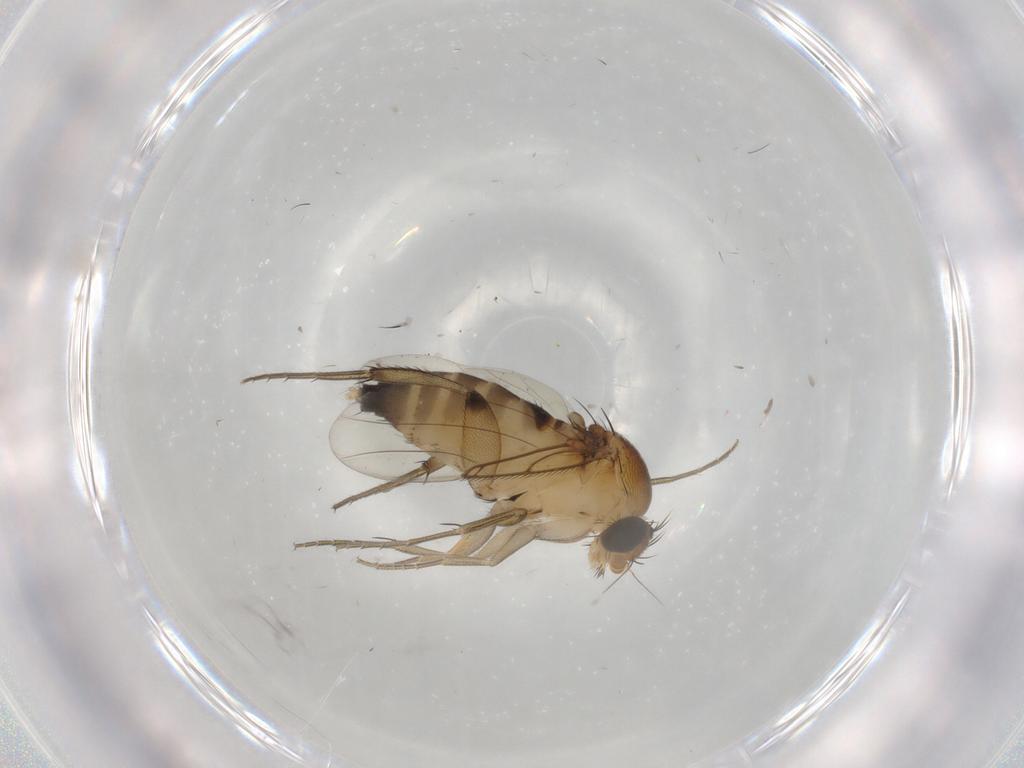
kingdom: Animalia
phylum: Arthropoda
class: Insecta
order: Diptera
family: Phoridae
